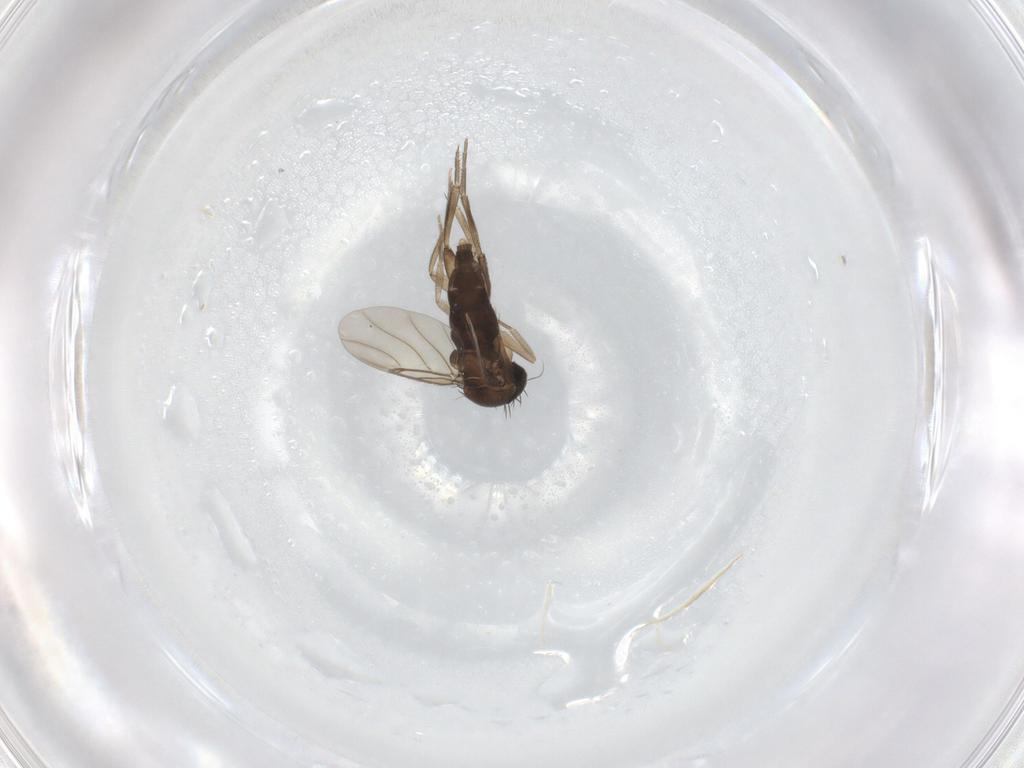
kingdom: Animalia
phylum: Arthropoda
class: Insecta
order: Diptera
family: Phoridae
